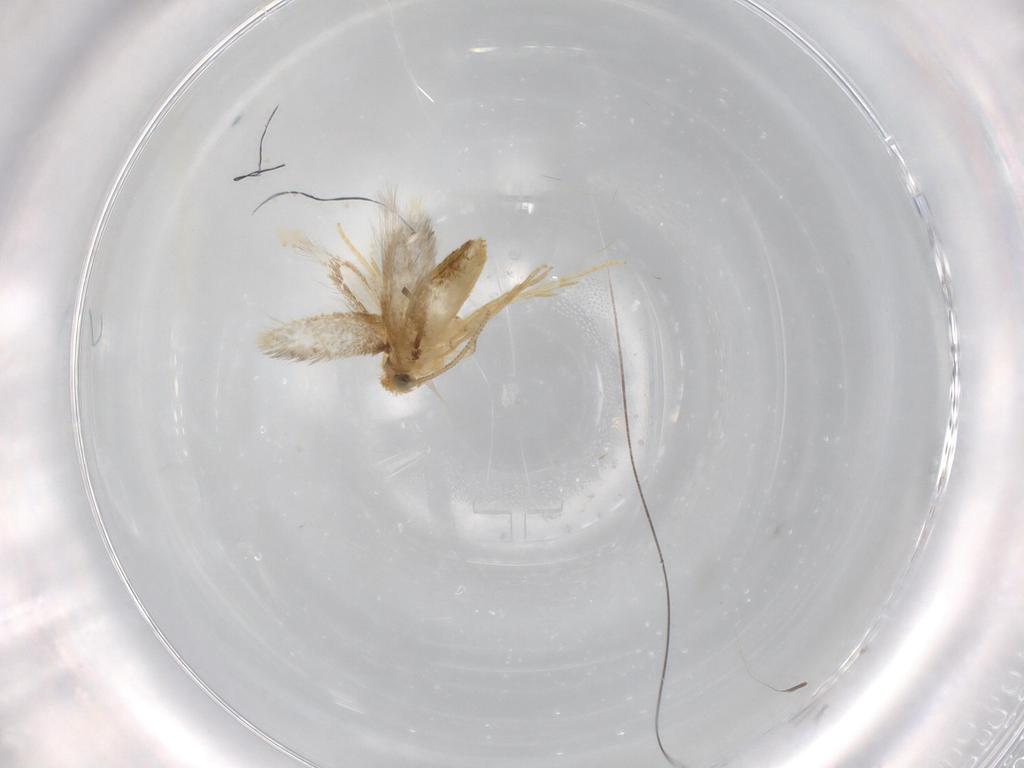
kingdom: Animalia
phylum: Arthropoda
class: Insecta
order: Lepidoptera
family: Nepticulidae
